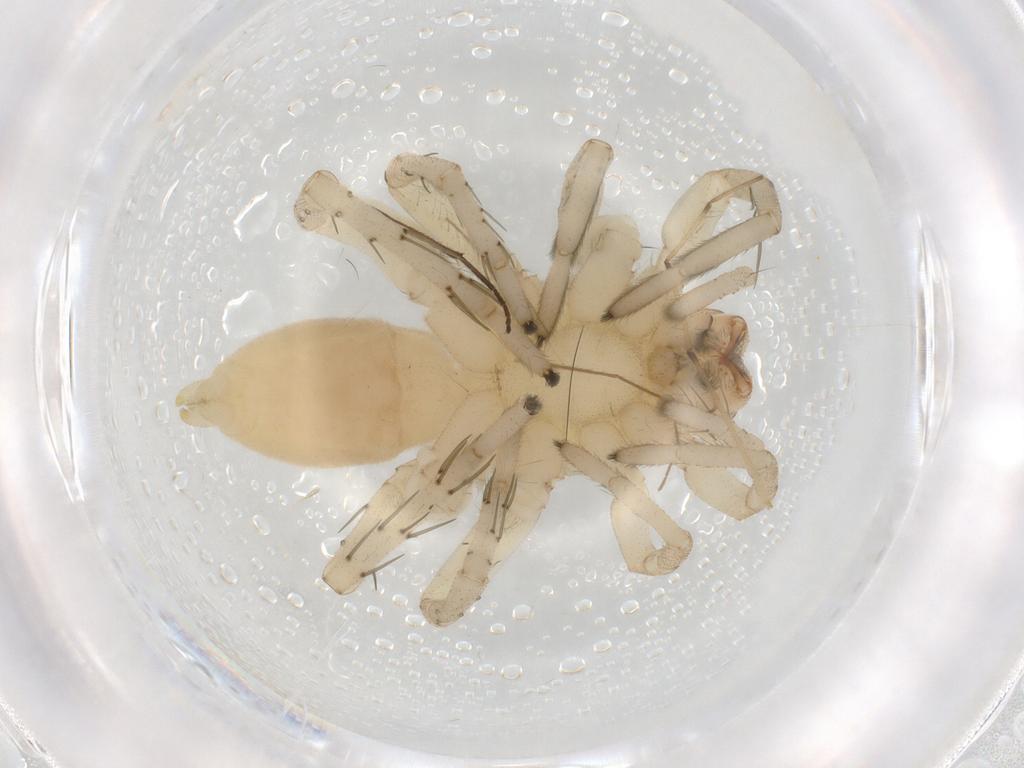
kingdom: Animalia
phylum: Arthropoda
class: Arachnida
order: Araneae
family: Clubionidae
